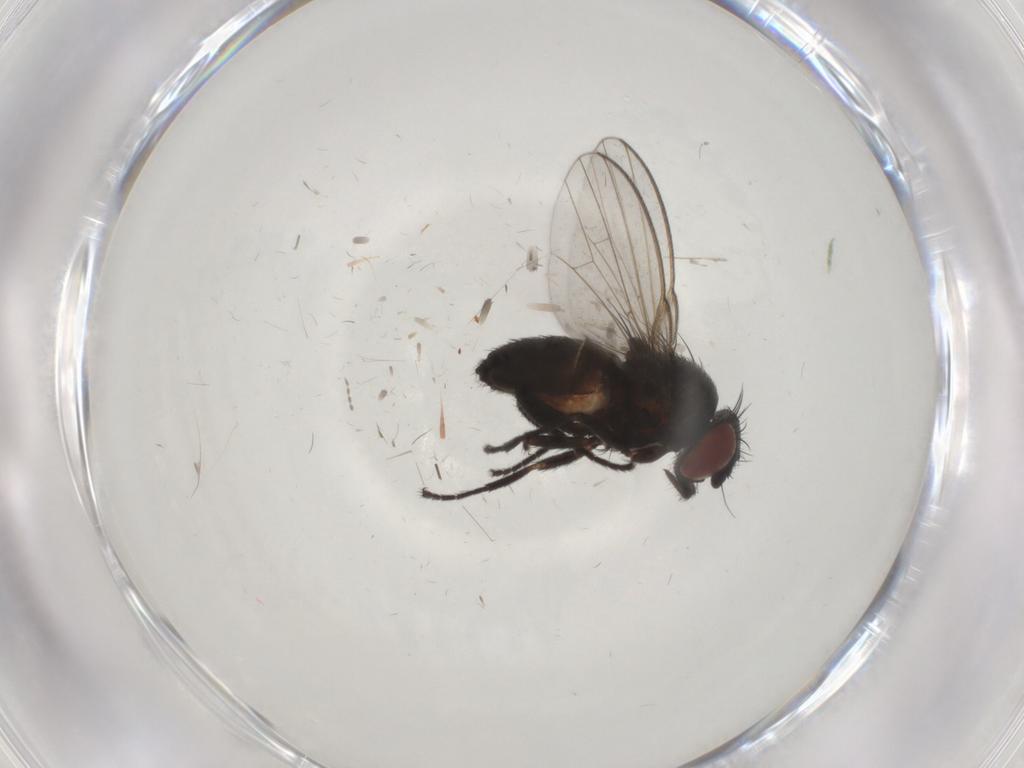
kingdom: Animalia
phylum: Arthropoda
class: Insecta
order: Diptera
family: Milichiidae
